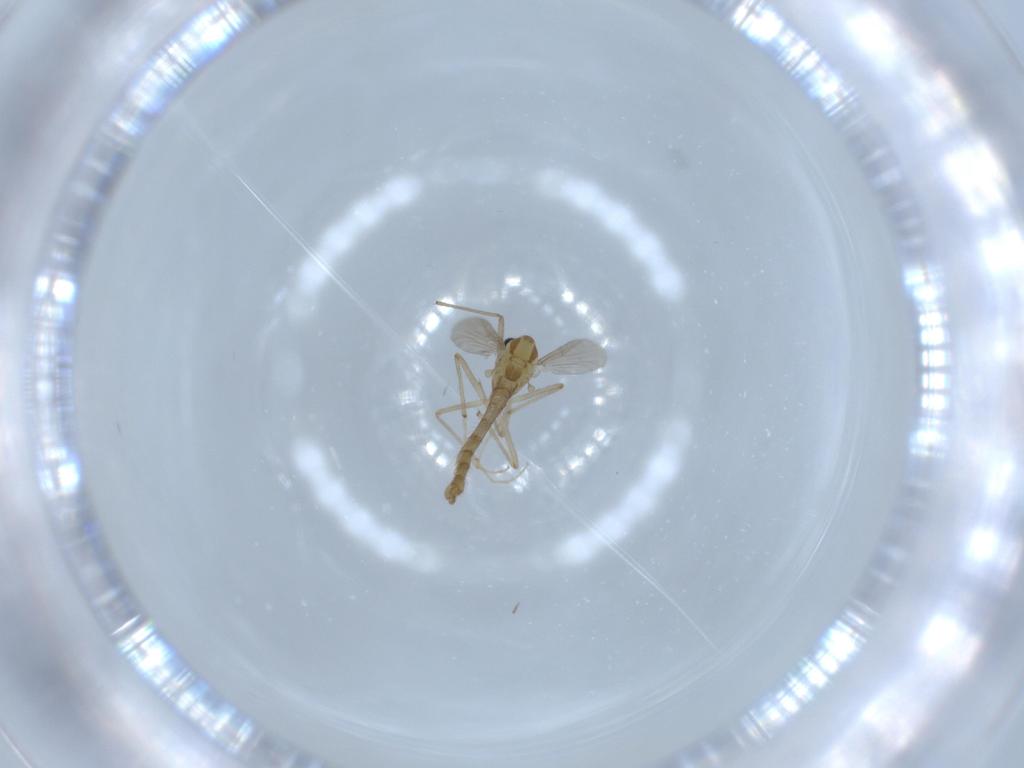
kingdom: Animalia
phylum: Arthropoda
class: Insecta
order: Diptera
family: Chironomidae
